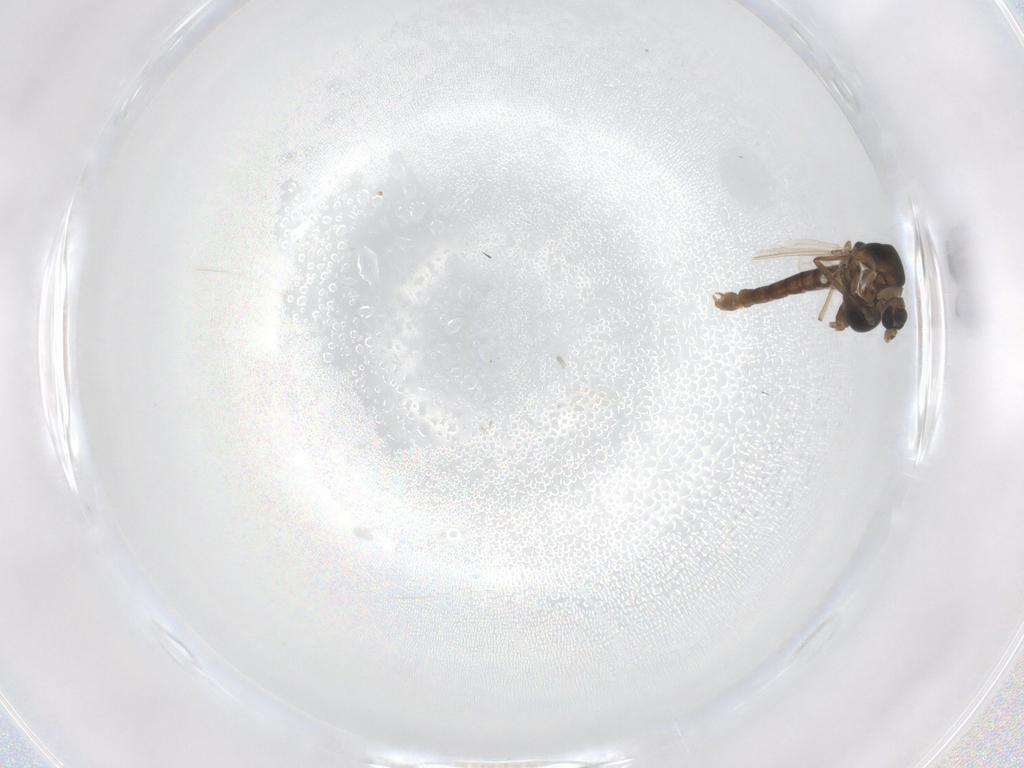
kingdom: Animalia
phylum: Arthropoda
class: Insecta
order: Diptera
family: Chironomidae
